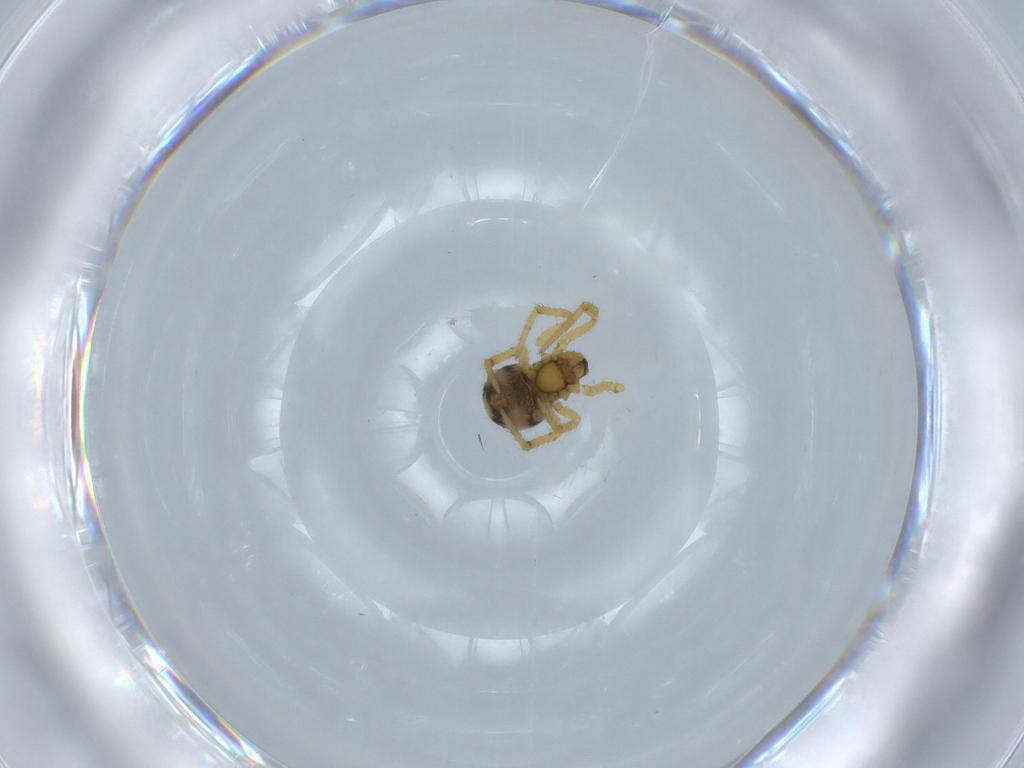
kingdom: Animalia
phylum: Arthropoda
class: Arachnida
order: Araneae
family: Theridiidae
